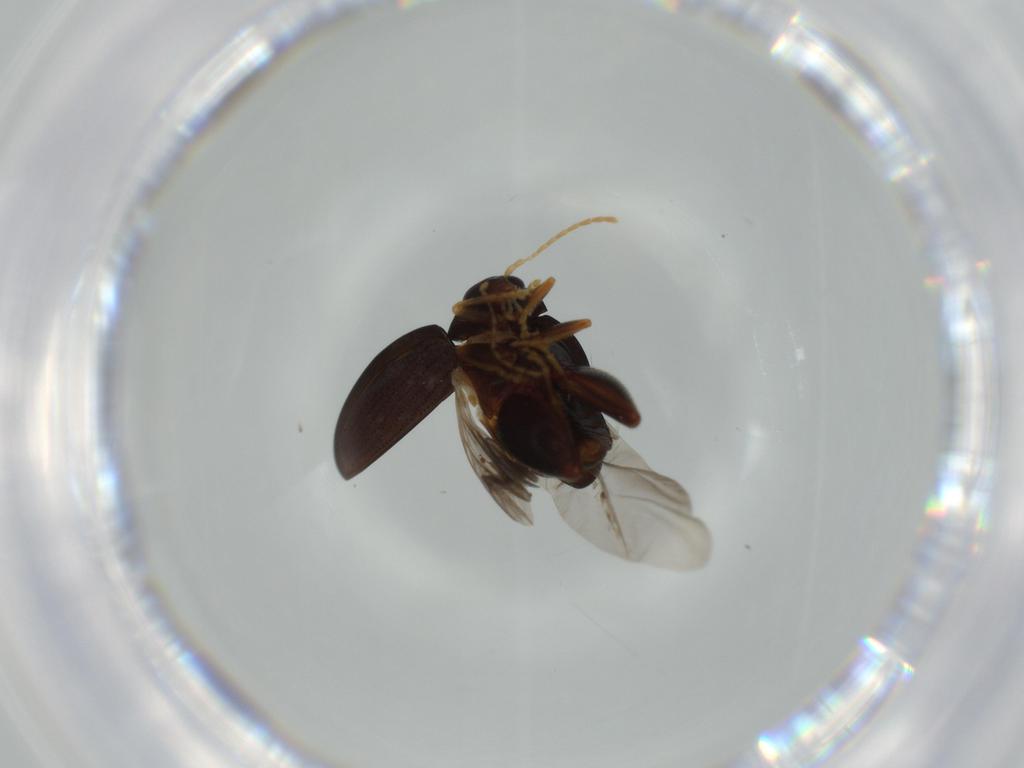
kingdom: Animalia
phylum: Arthropoda
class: Insecta
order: Coleoptera
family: Chrysomelidae
